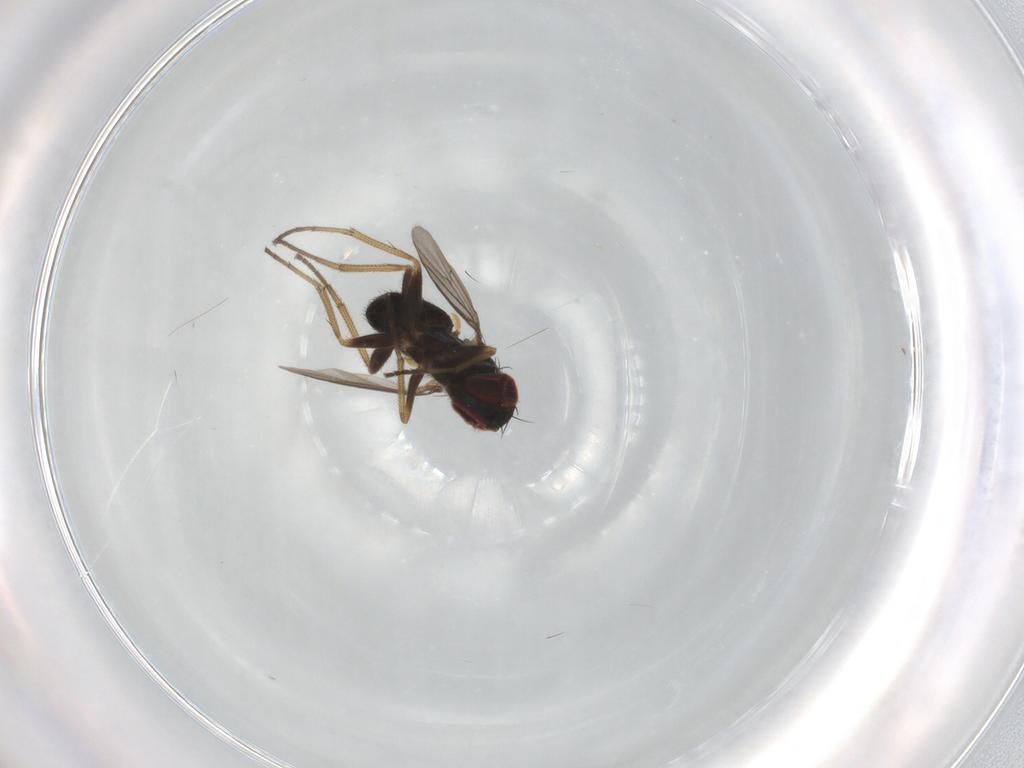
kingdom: Animalia
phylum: Arthropoda
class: Insecta
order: Diptera
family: Dolichopodidae
